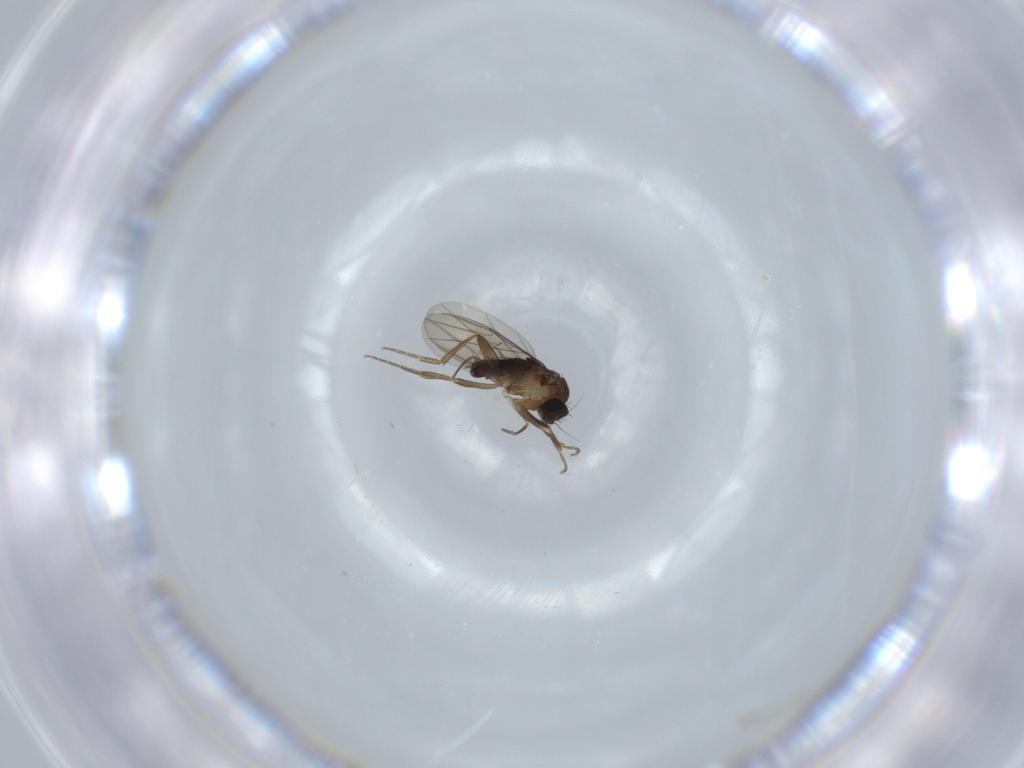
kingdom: Animalia
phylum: Arthropoda
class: Insecta
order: Diptera
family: Phoridae
